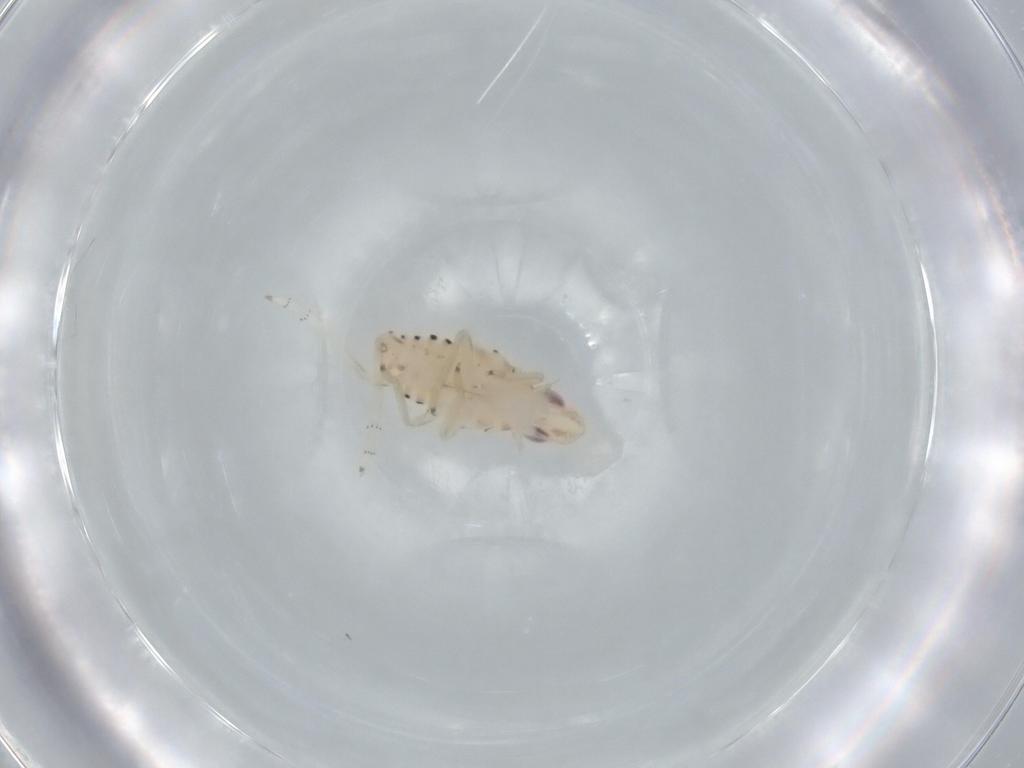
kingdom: Animalia
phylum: Arthropoda
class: Insecta
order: Hemiptera
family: Tropiduchidae
